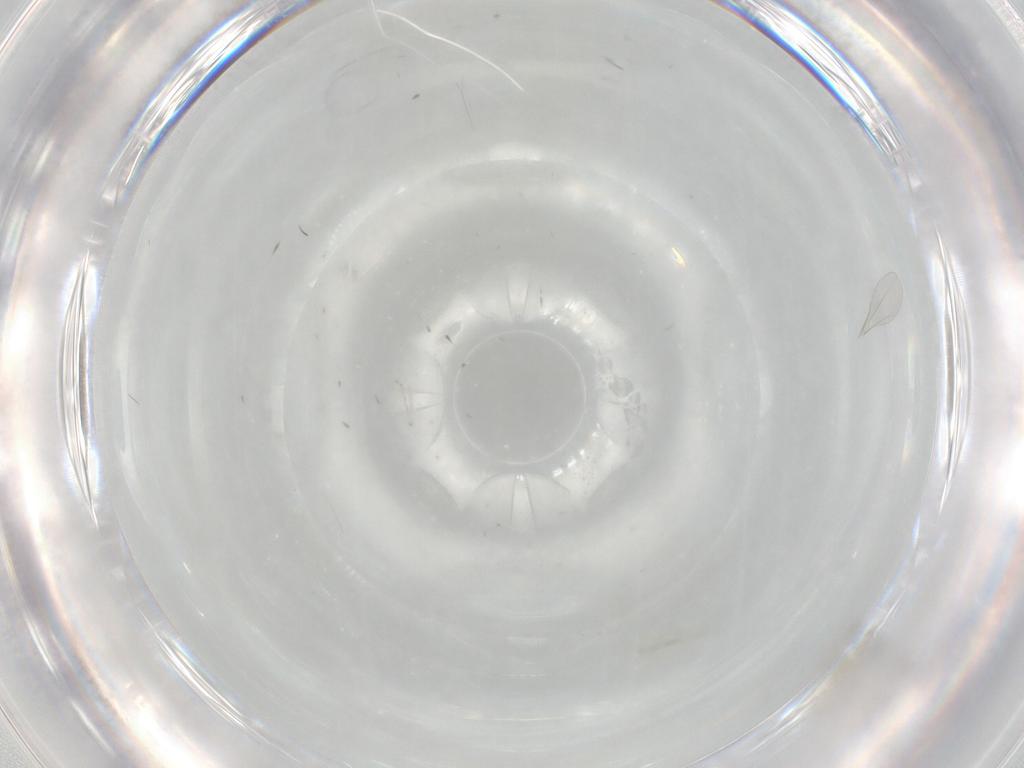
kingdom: Animalia
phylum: Arthropoda
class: Insecta
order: Diptera
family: Cecidomyiidae
